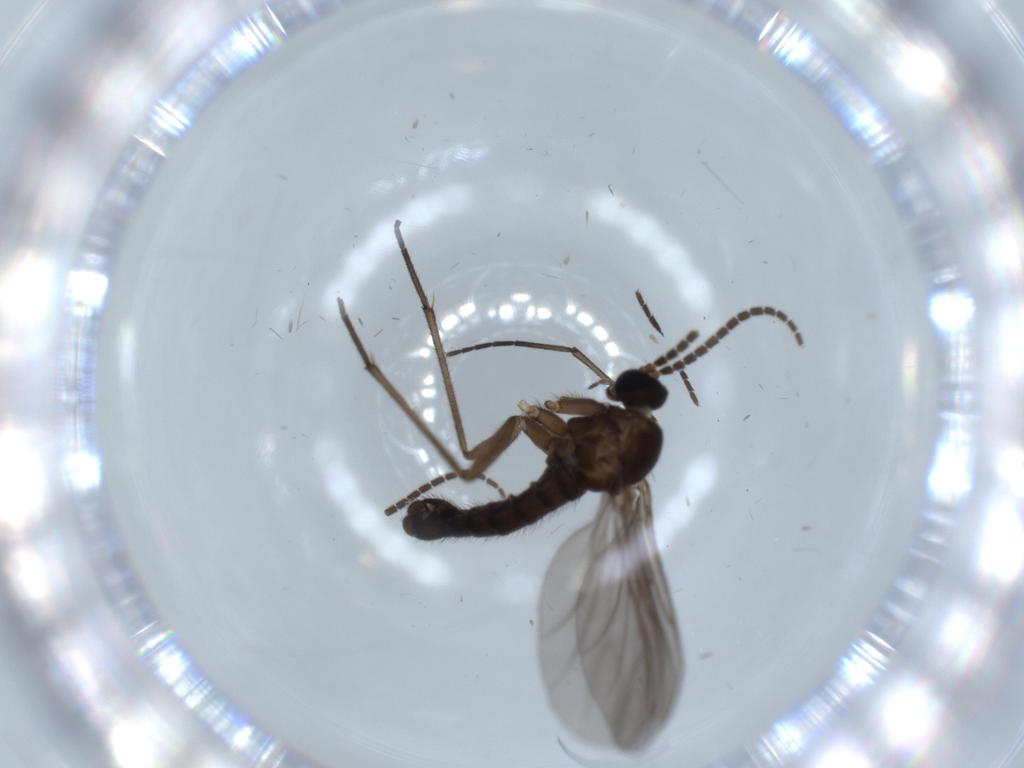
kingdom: Animalia
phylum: Arthropoda
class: Insecta
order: Diptera
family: Sciaridae
